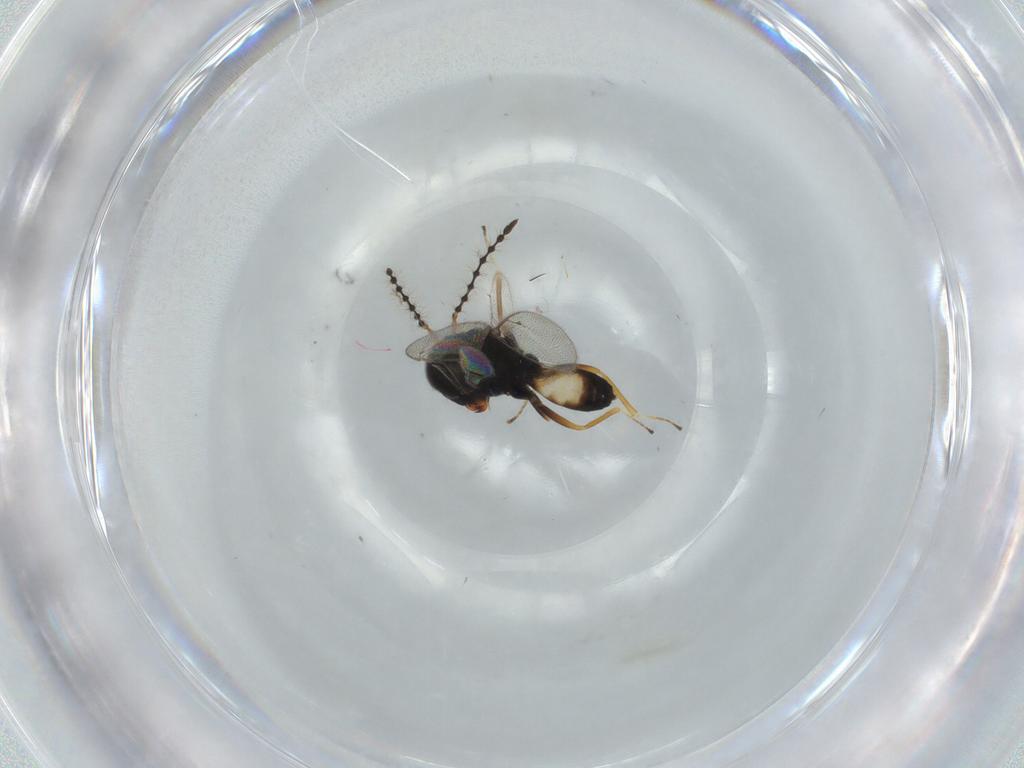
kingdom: Animalia
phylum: Arthropoda
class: Insecta
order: Hymenoptera
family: Pteromalidae
